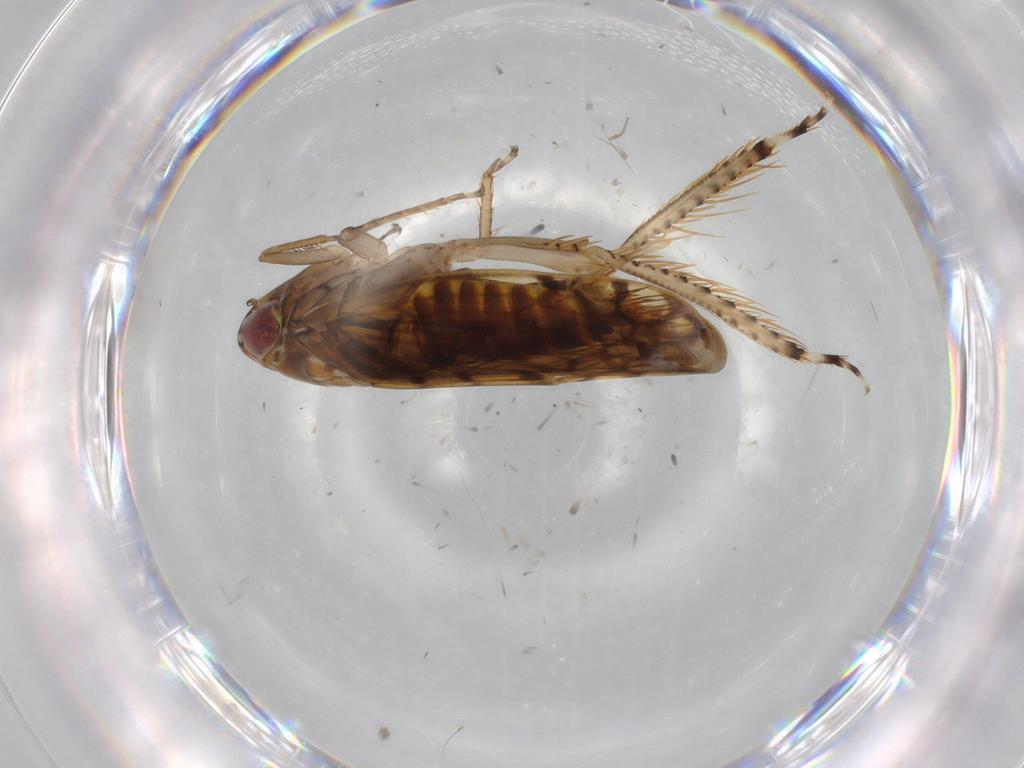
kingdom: Animalia
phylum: Arthropoda
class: Insecta
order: Hemiptera
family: Cicadellidae
